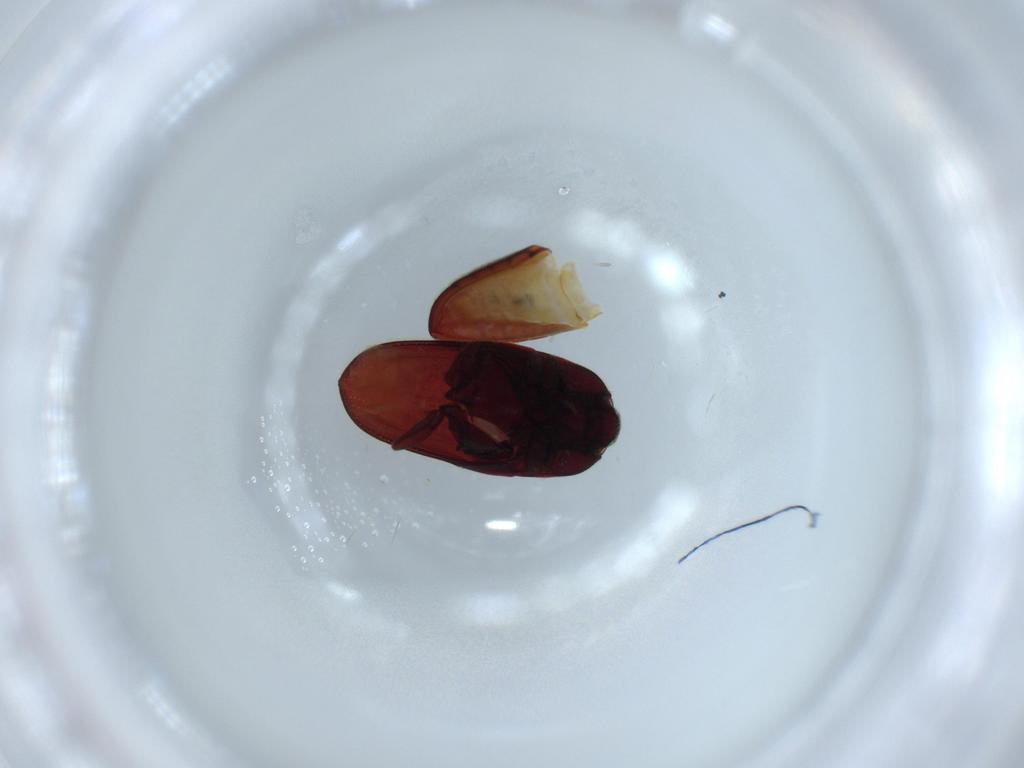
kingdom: Animalia
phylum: Arthropoda
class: Insecta
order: Coleoptera
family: Throscidae
